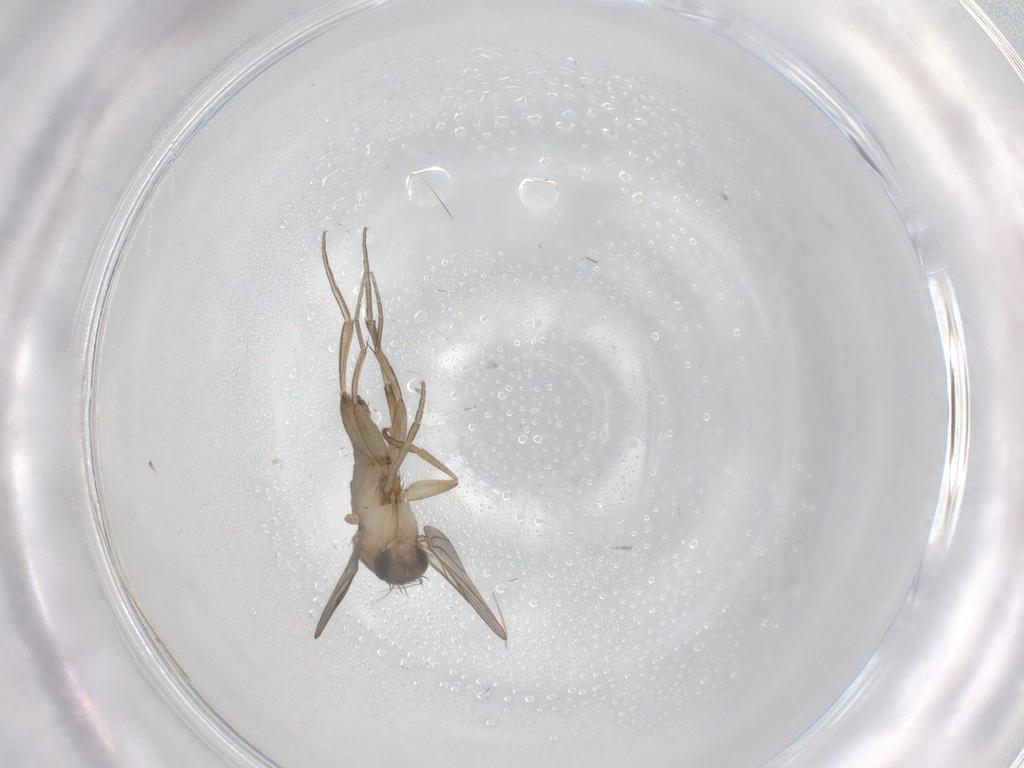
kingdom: Animalia
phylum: Arthropoda
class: Insecta
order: Diptera
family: Phoridae
